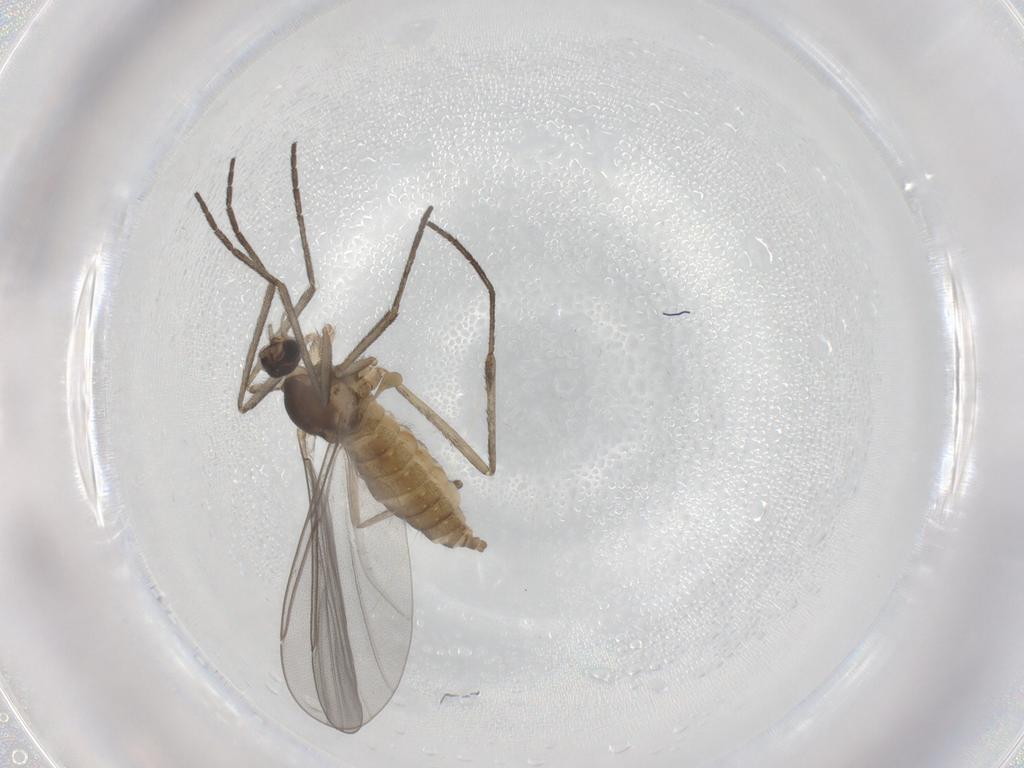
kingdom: Animalia
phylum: Arthropoda
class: Insecta
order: Diptera
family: Cecidomyiidae
